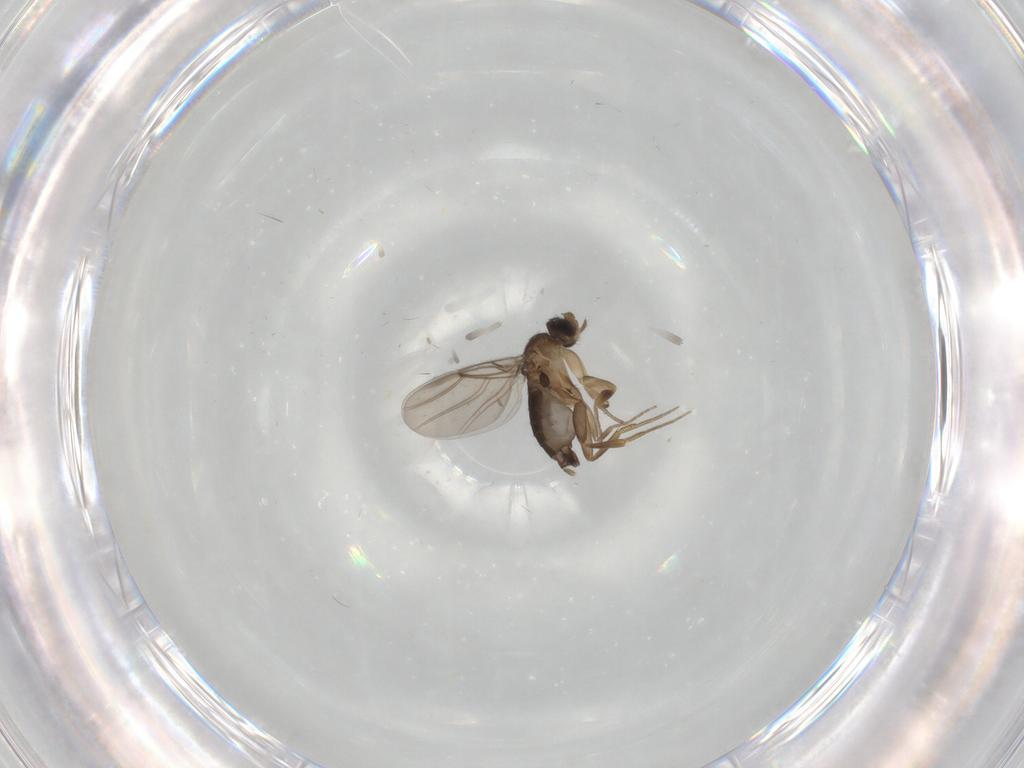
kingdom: Animalia
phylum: Arthropoda
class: Insecta
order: Diptera
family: Phoridae
